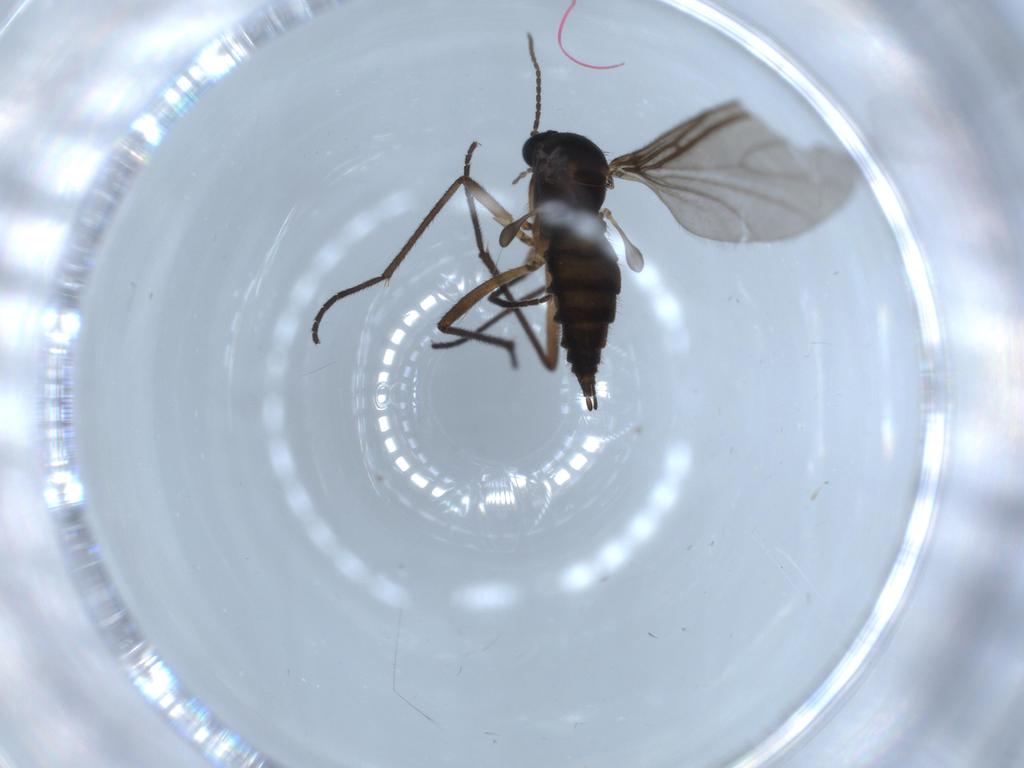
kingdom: Animalia
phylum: Arthropoda
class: Insecta
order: Diptera
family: Chironomidae
